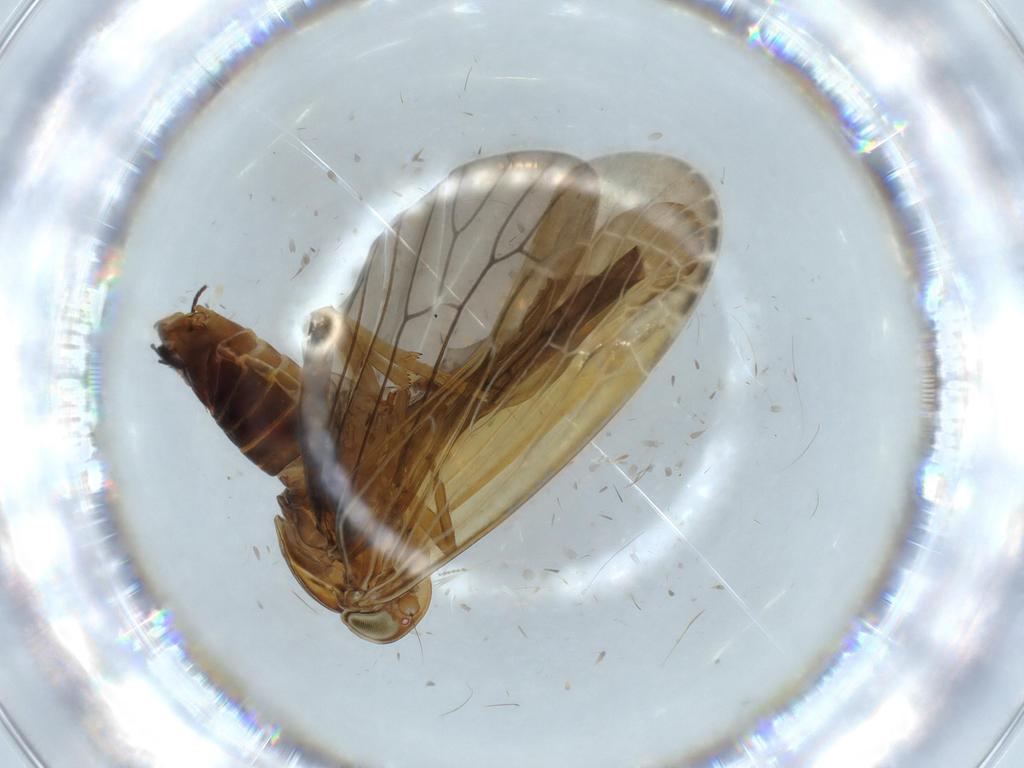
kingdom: Animalia
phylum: Arthropoda
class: Insecta
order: Hemiptera
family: Achilidae
